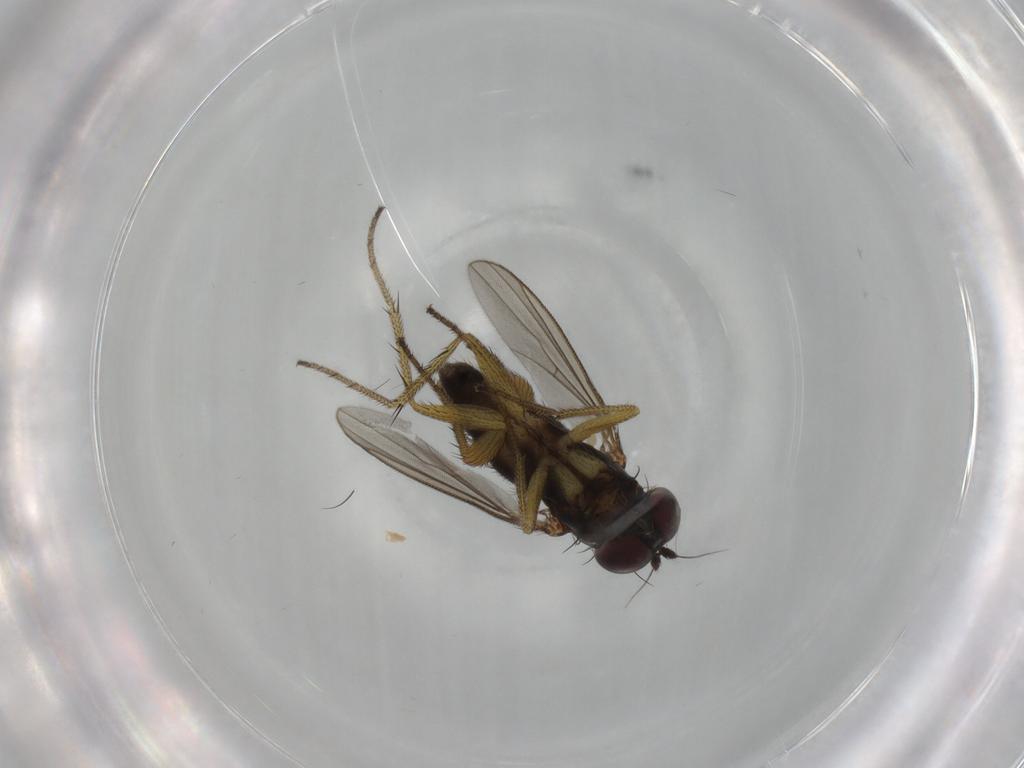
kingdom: Animalia
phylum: Arthropoda
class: Insecta
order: Diptera
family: Dolichopodidae
